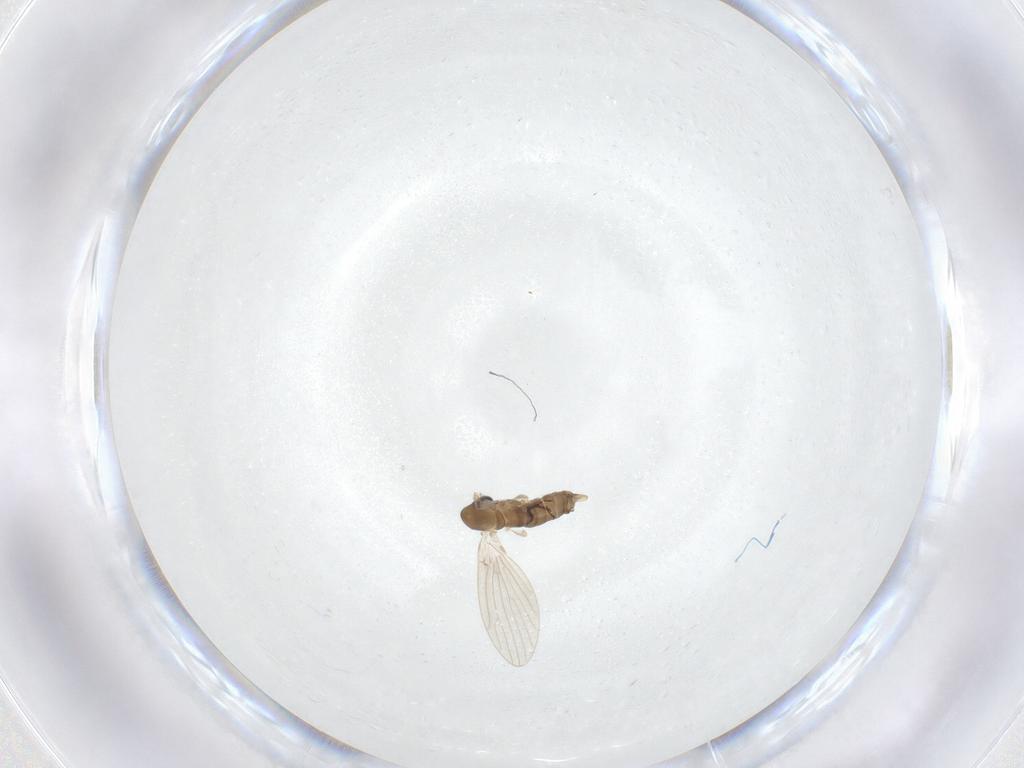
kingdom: Animalia
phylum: Arthropoda
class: Insecta
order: Diptera
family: Psychodidae
